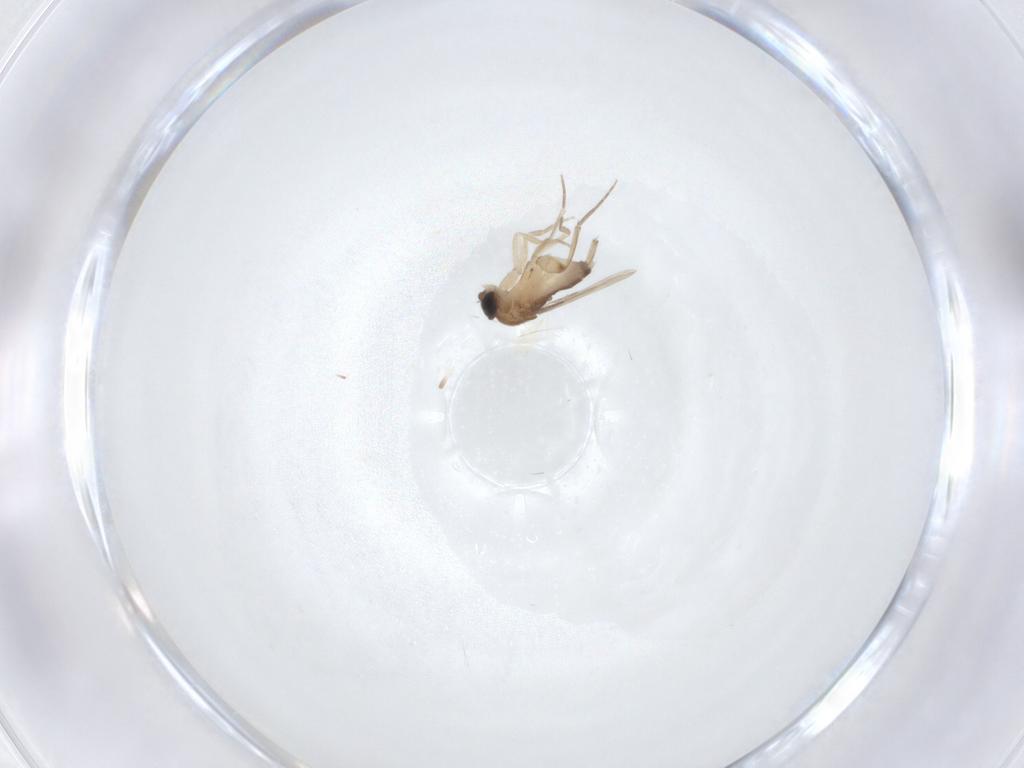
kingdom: Animalia
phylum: Arthropoda
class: Insecta
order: Diptera
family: Phoridae
